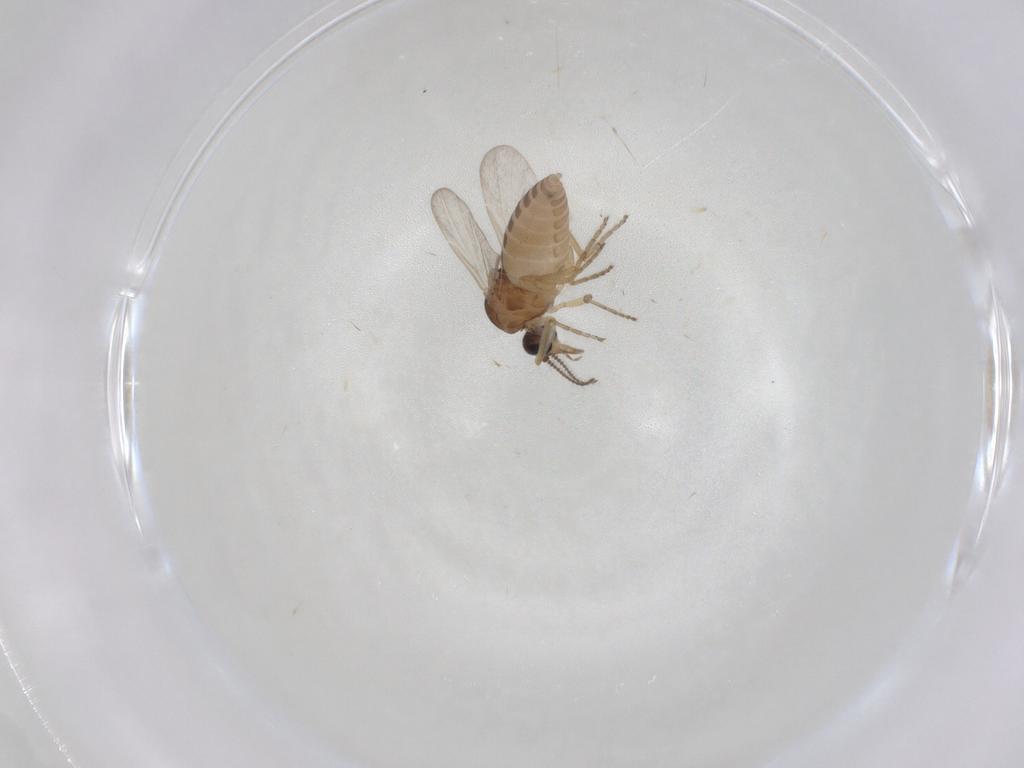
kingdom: Animalia
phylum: Arthropoda
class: Insecta
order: Diptera
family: Ceratopogonidae
